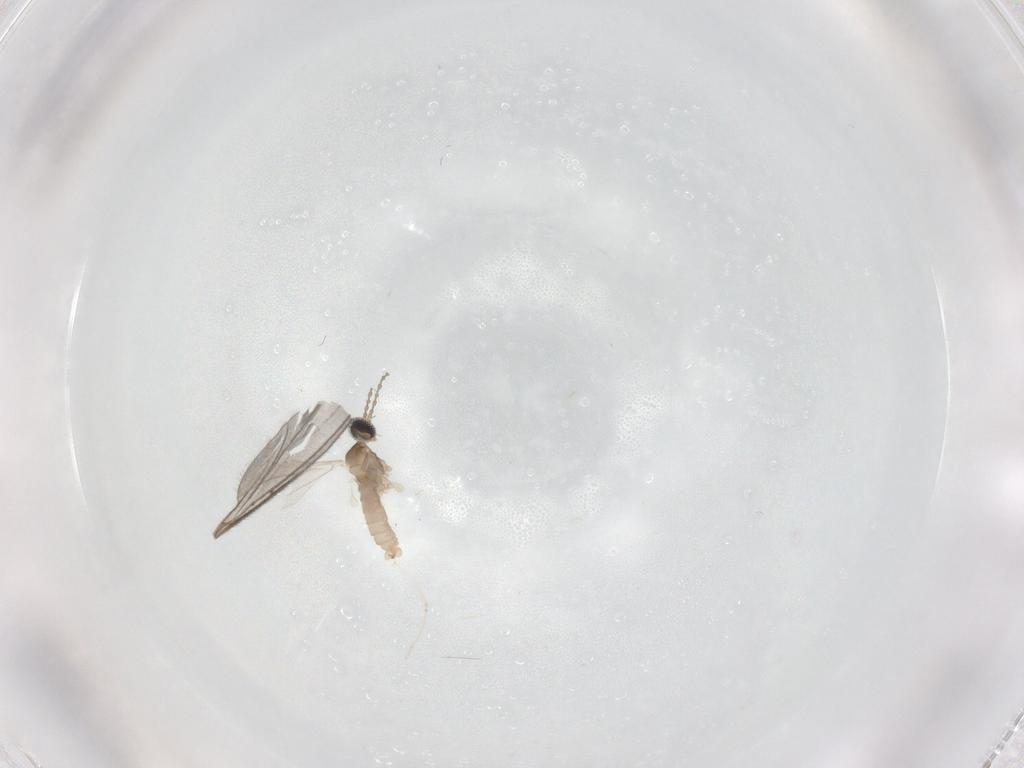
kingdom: Animalia
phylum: Arthropoda
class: Insecta
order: Diptera
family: Cecidomyiidae
